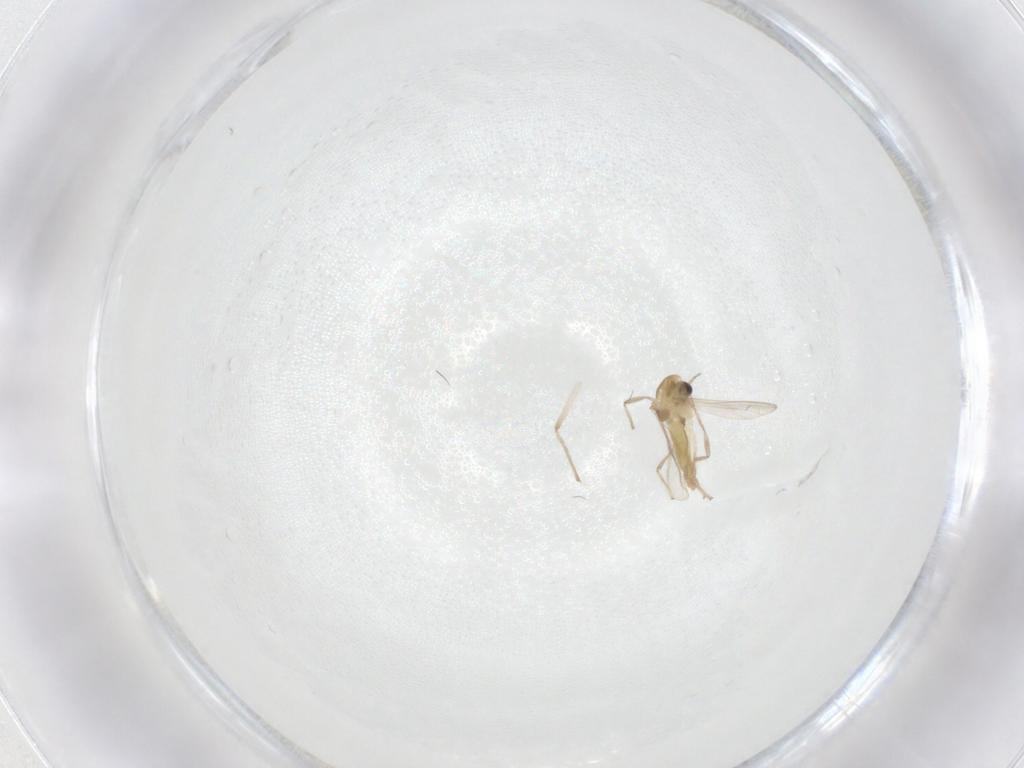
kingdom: Animalia
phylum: Arthropoda
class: Insecta
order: Diptera
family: Chironomidae
